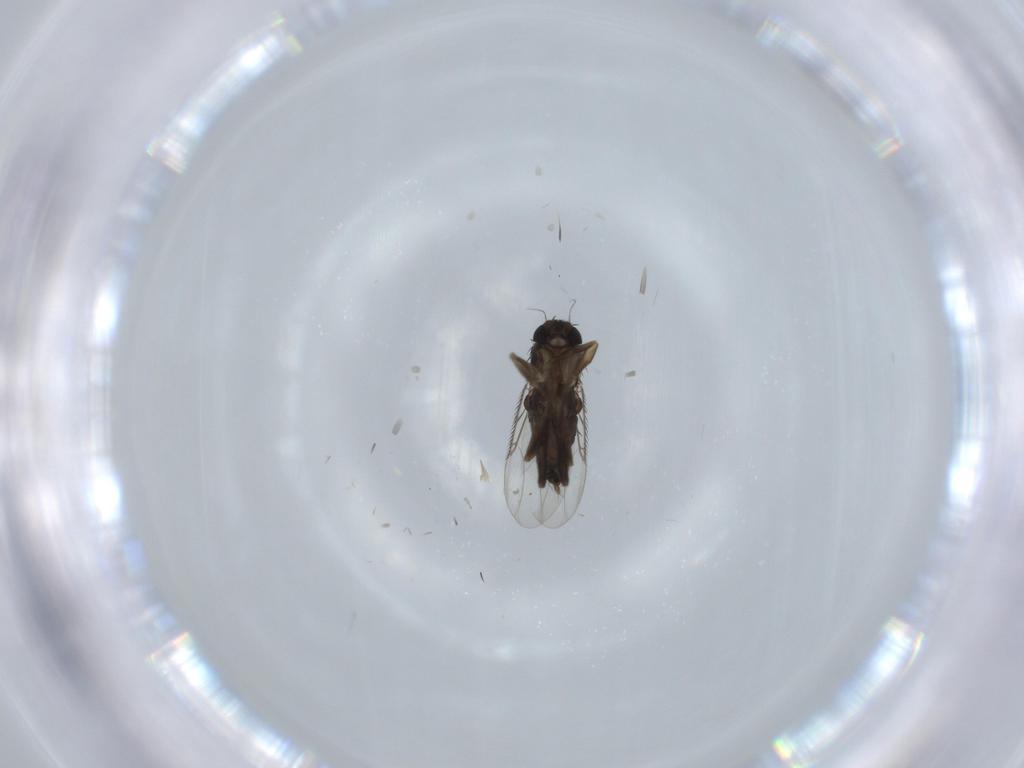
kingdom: Animalia
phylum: Arthropoda
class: Insecta
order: Diptera
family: Phoridae
